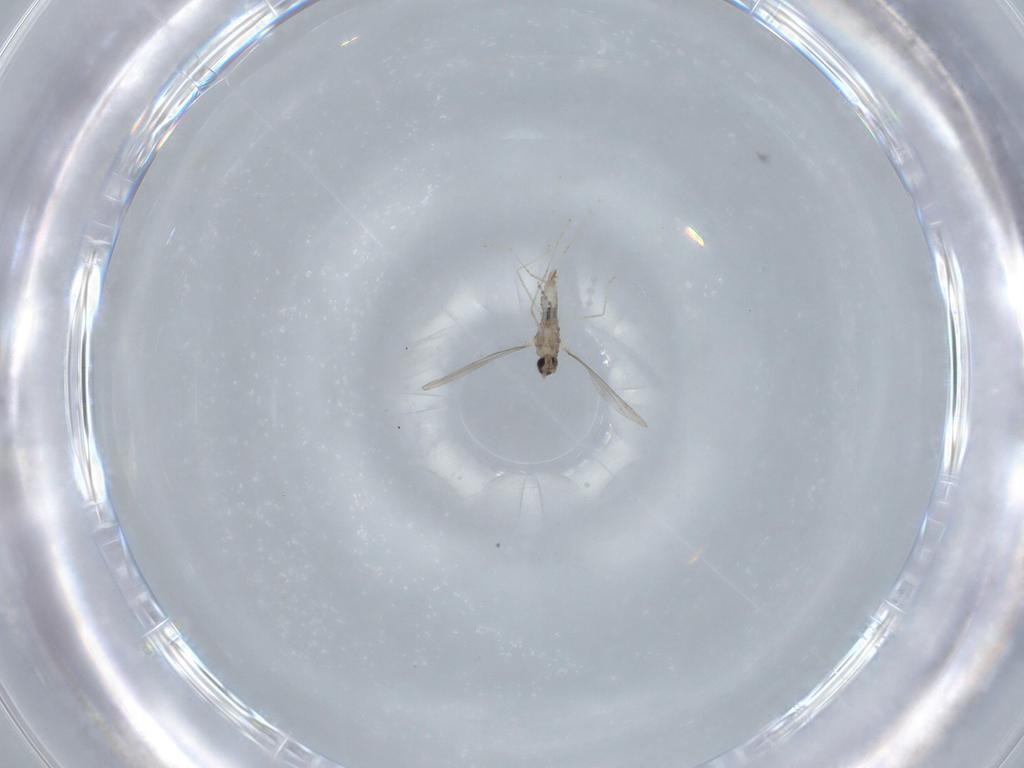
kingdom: Animalia
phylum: Arthropoda
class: Insecta
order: Diptera
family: Cecidomyiidae
